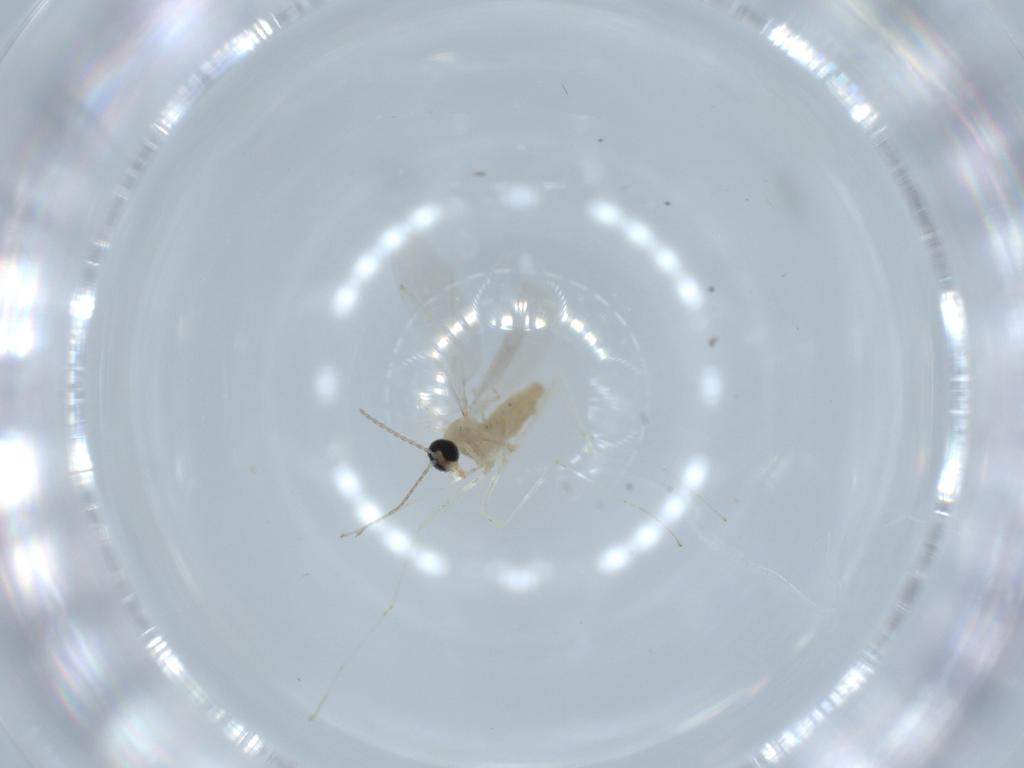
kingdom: Animalia
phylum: Arthropoda
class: Insecta
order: Diptera
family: Cecidomyiidae
